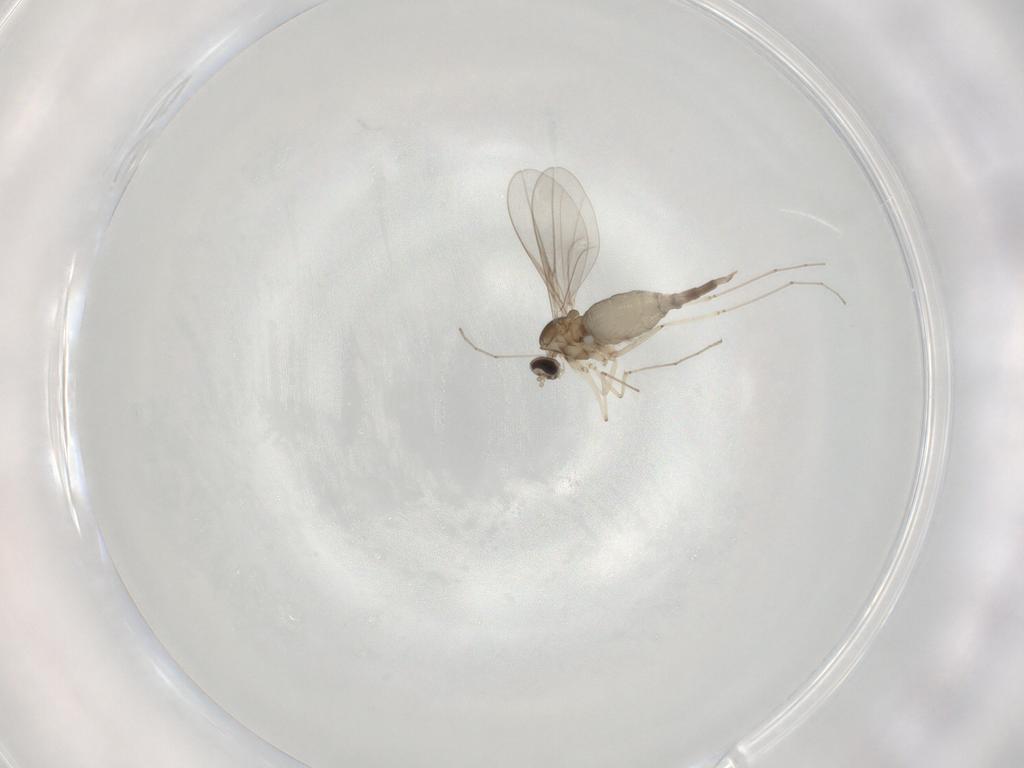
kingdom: Animalia
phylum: Arthropoda
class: Insecta
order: Diptera
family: Cecidomyiidae
